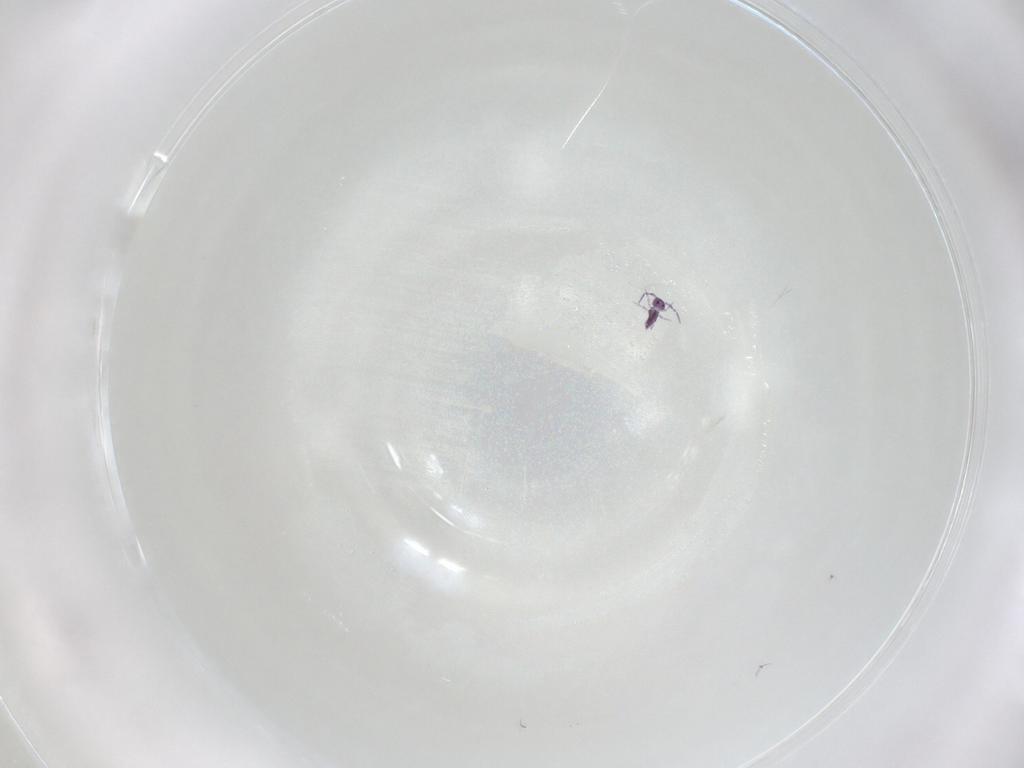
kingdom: Animalia
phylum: Arthropoda
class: Collembola
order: Symphypleona
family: Sminthurididae
